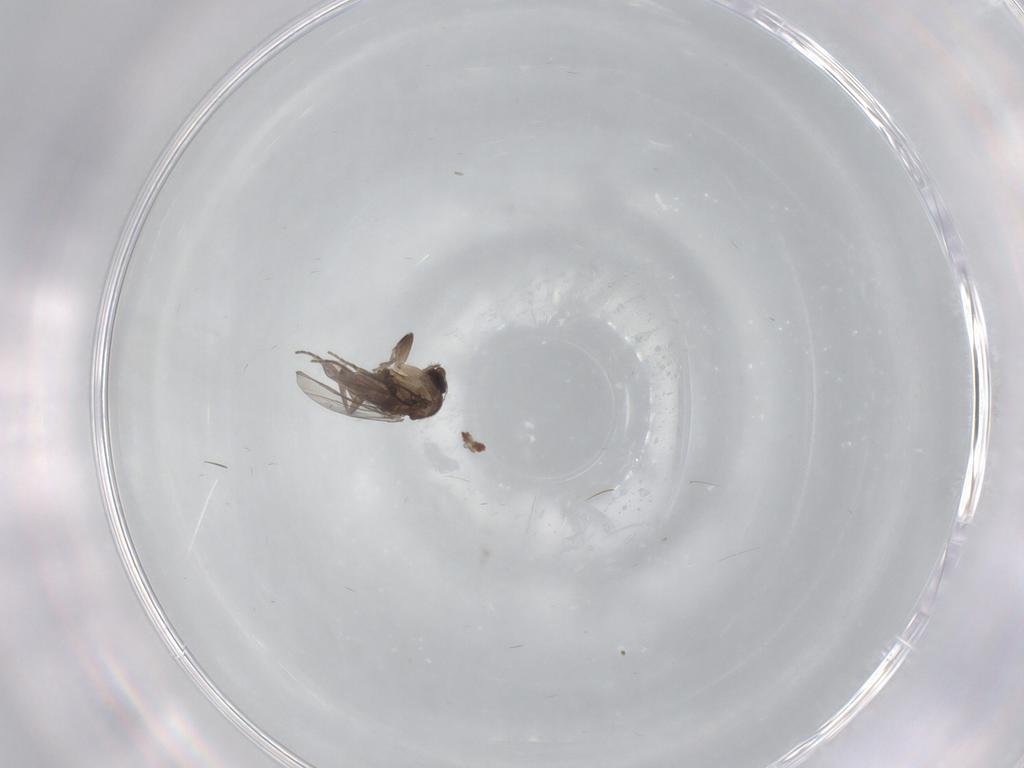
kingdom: Animalia
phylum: Arthropoda
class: Insecta
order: Diptera
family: Phoridae
